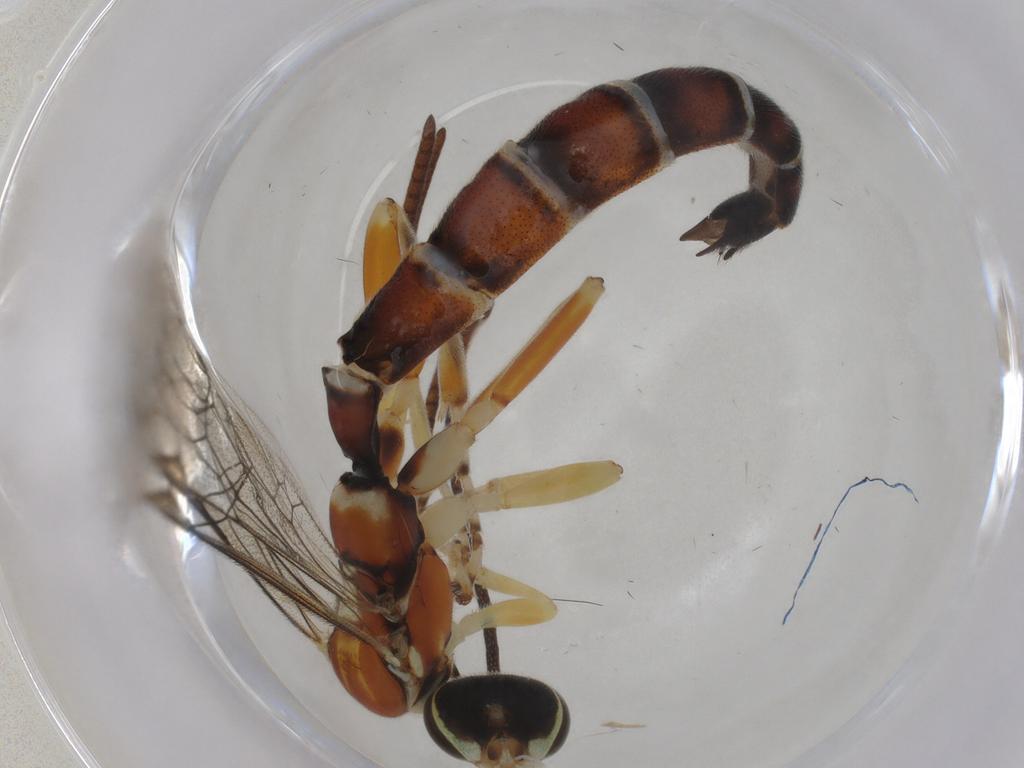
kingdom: Animalia
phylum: Arthropoda
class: Insecta
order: Hymenoptera
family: Ichneumonidae
